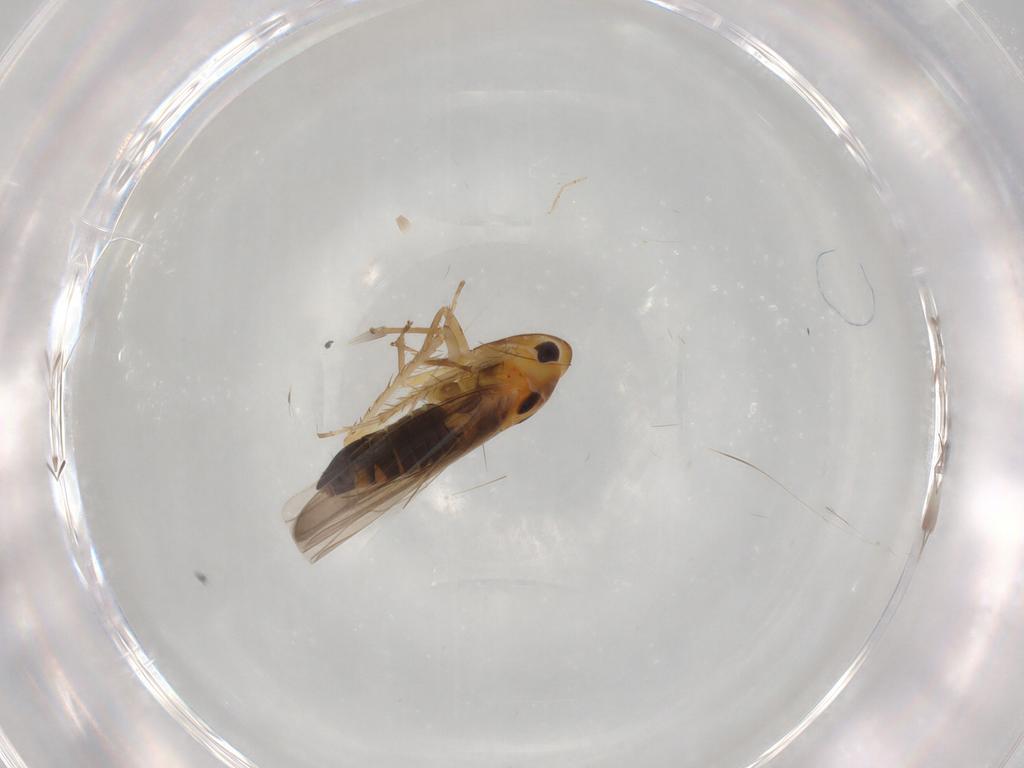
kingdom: Animalia
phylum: Arthropoda
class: Insecta
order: Hemiptera
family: Cicadellidae
